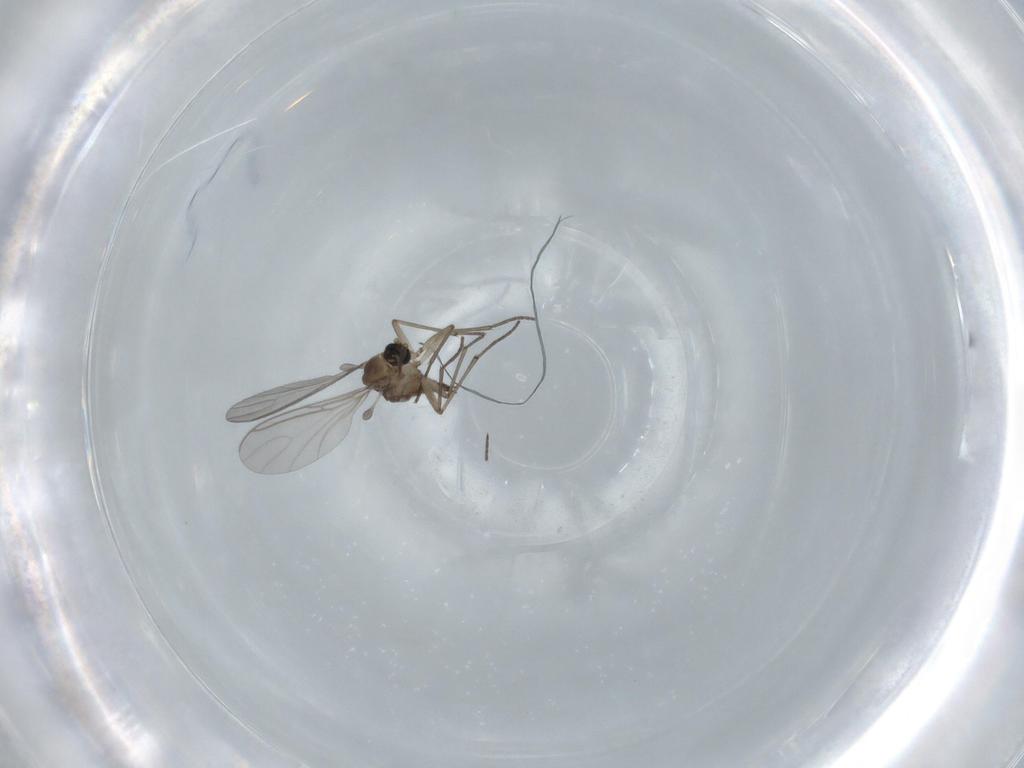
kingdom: Animalia
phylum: Arthropoda
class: Insecta
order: Diptera
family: Sciaridae
